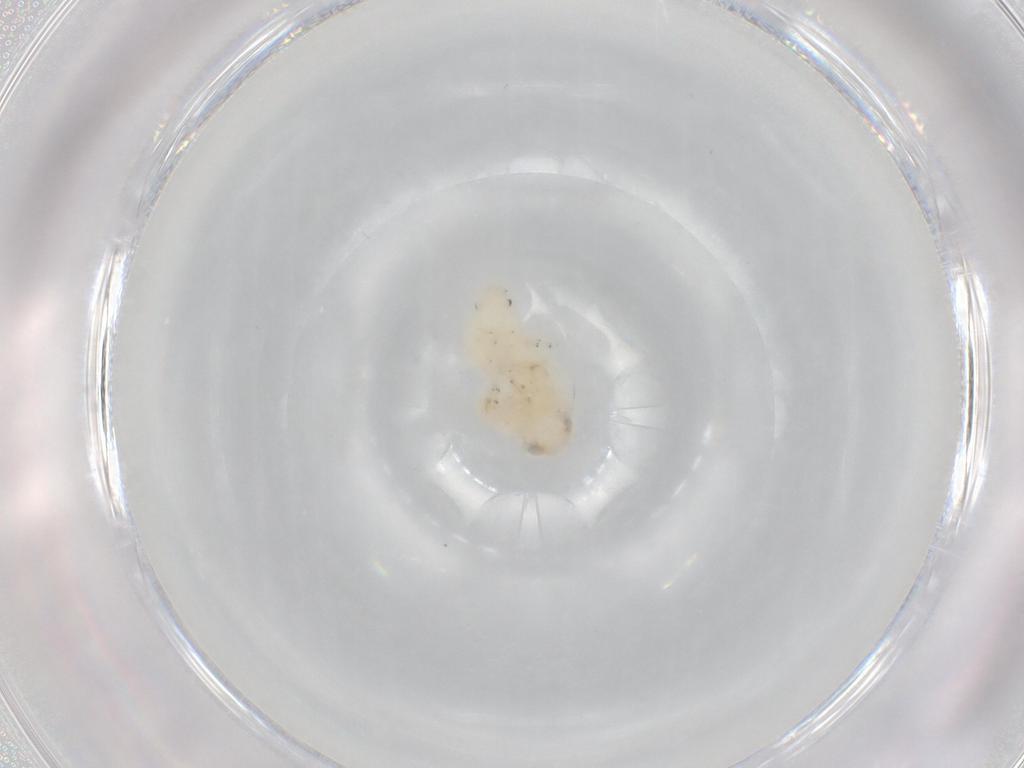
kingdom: Animalia
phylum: Arthropoda
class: Insecta
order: Hemiptera
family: Nogodinidae
